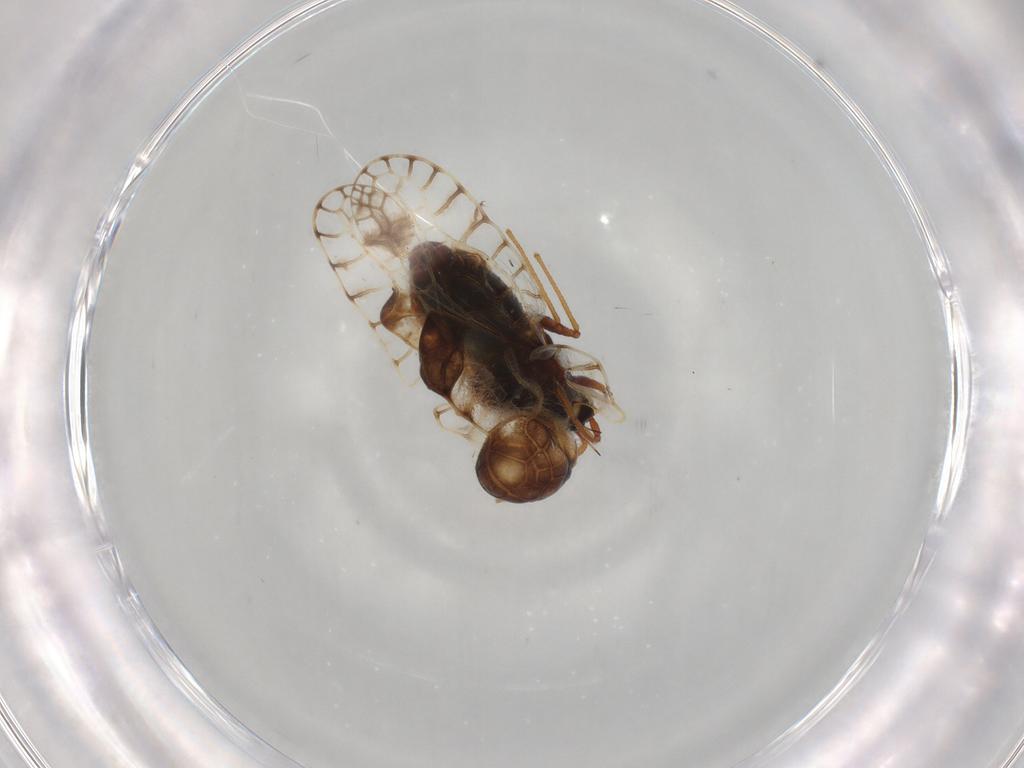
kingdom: Animalia
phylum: Arthropoda
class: Insecta
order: Hemiptera
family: Tingidae
